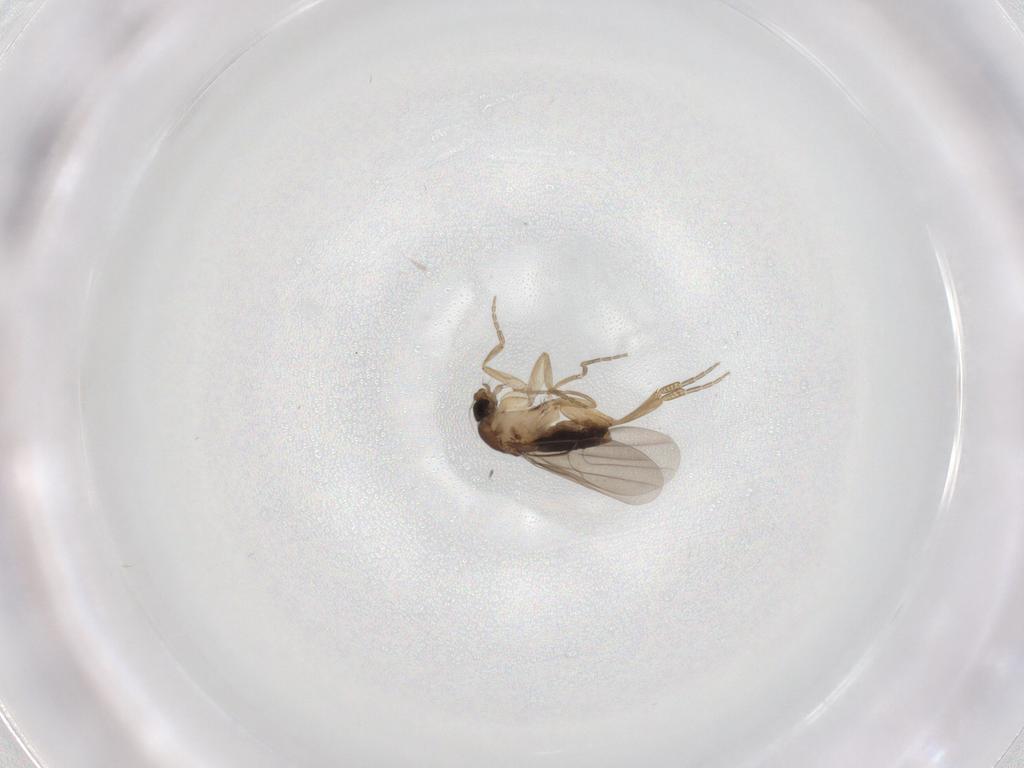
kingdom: Animalia
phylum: Arthropoda
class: Insecta
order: Diptera
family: Phoridae
